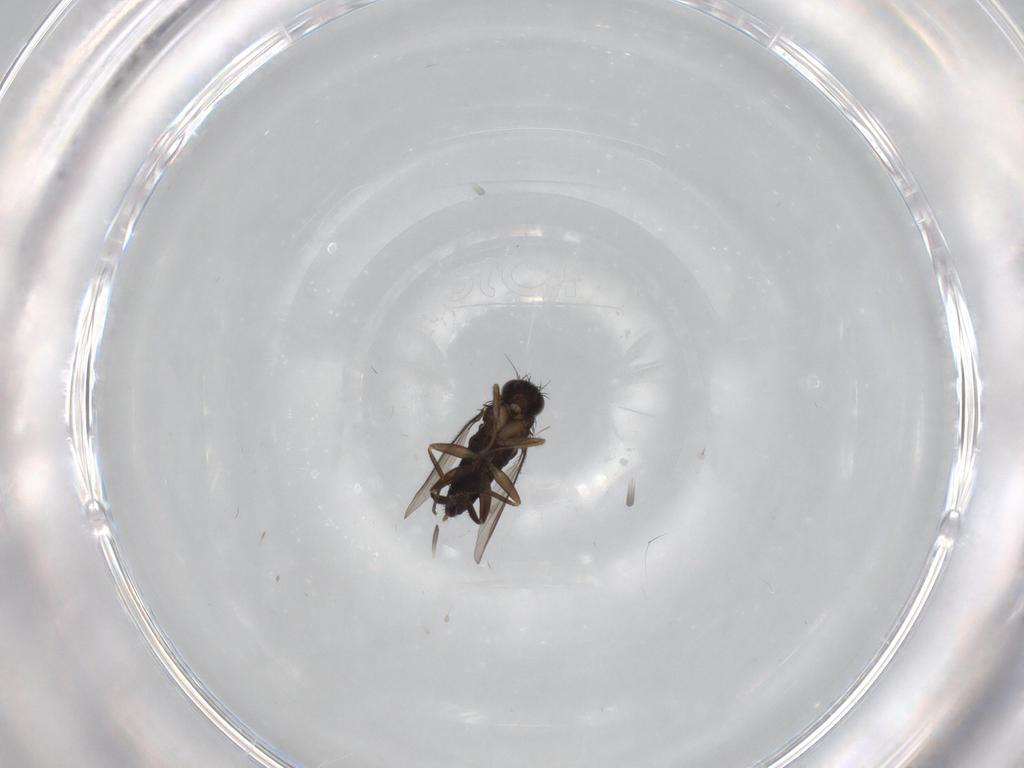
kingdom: Animalia
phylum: Arthropoda
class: Insecta
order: Diptera
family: Phoridae
